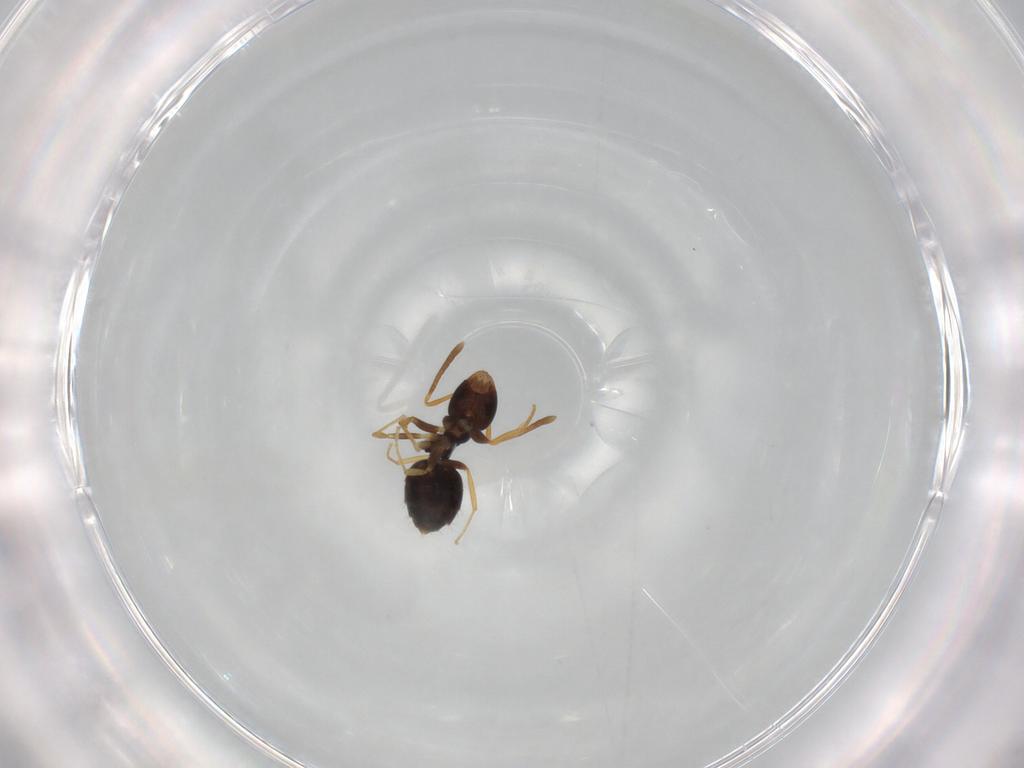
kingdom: Animalia
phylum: Arthropoda
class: Insecta
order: Hymenoptera
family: Formicidae
